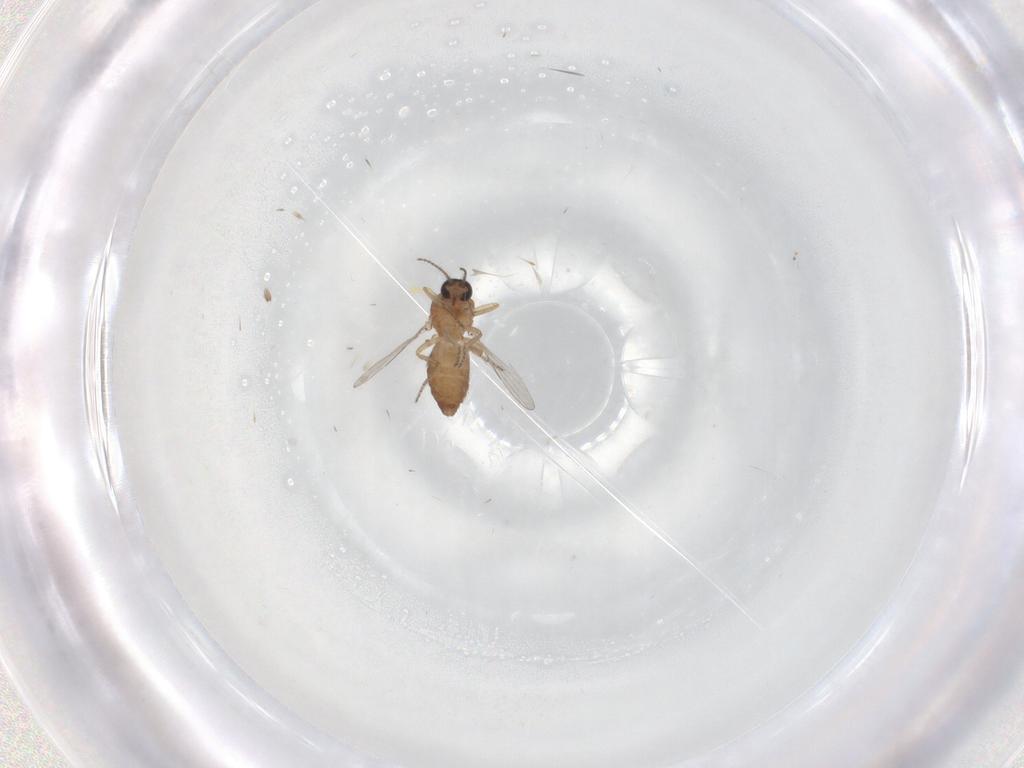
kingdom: Animalia
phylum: Arthropoda
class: Insecta
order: Diptera
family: Ceratopogonidae
